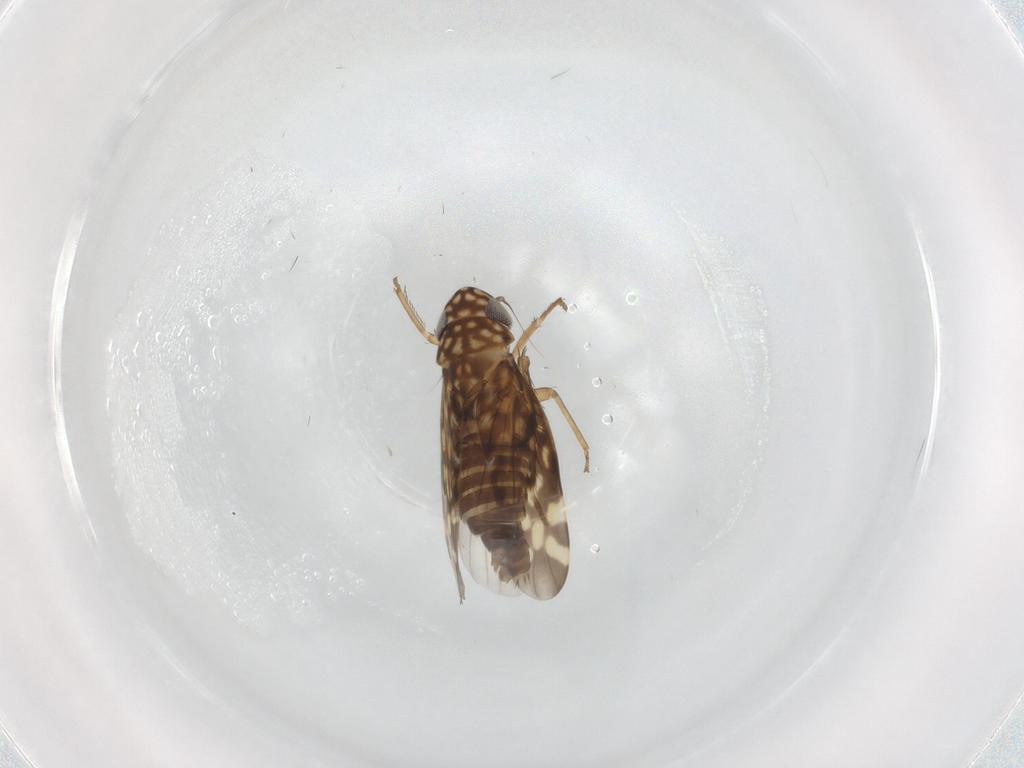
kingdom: Animalia
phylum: Arthropoda
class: Insecta
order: Hemiptera
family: Cicadellidae
